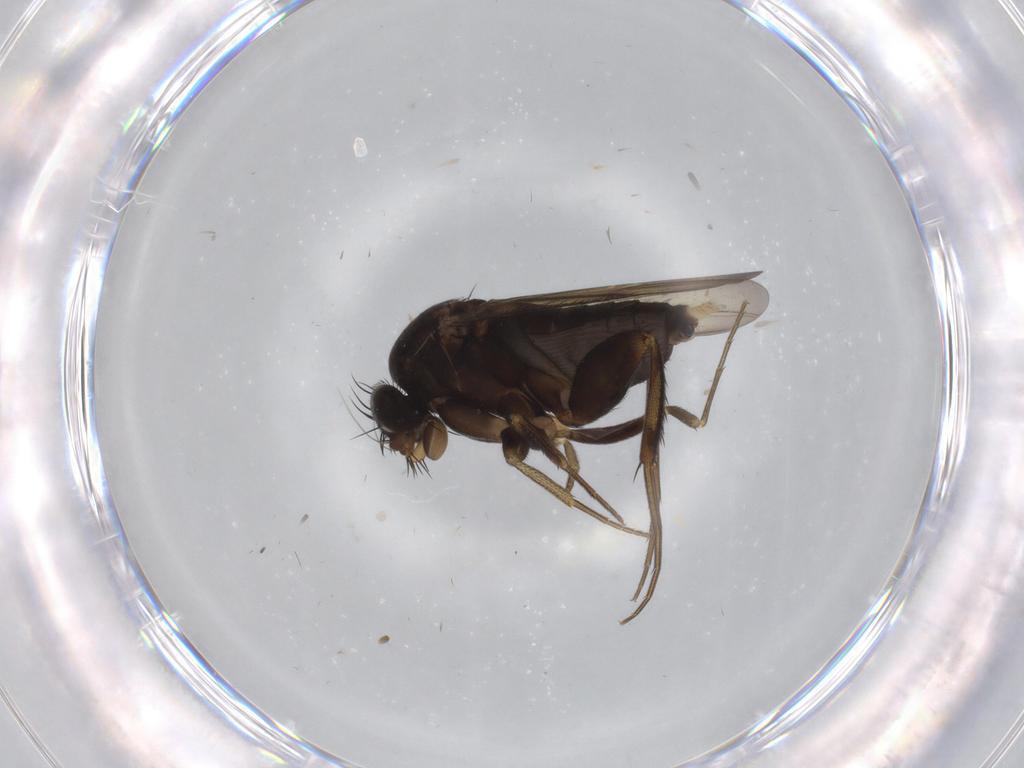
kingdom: Animalia
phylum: Arthropoda
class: Insecta
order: Diptera
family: Phoridae
